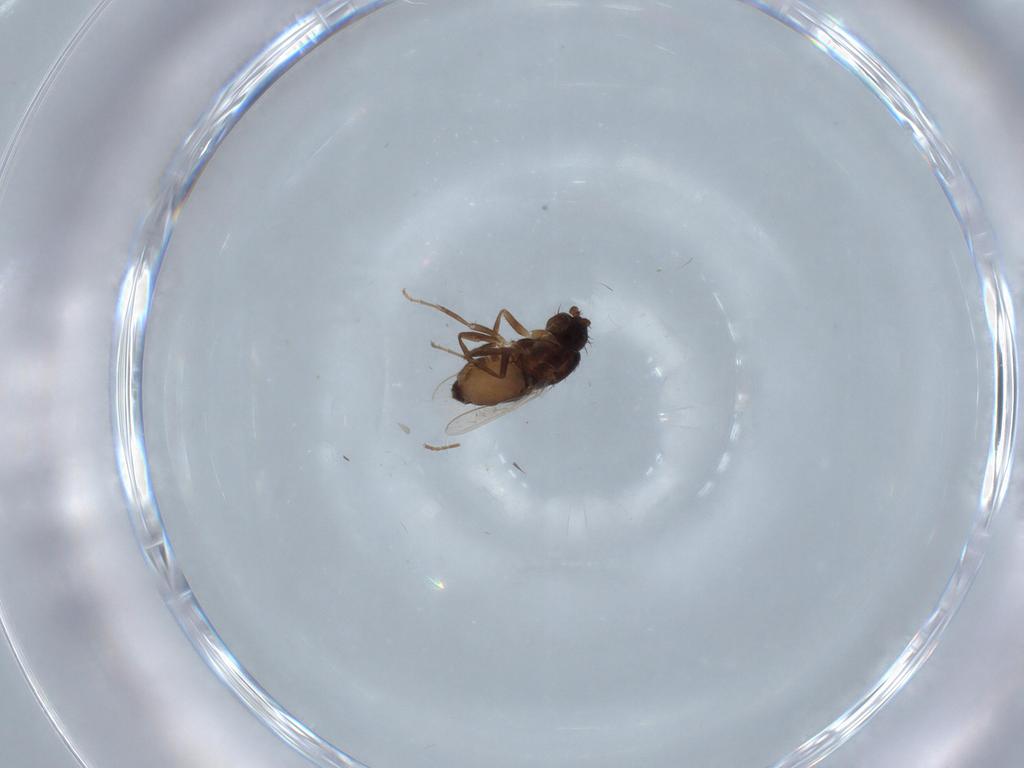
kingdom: Animalia
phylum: Arthropoda
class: Insecta
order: Diptera
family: Sphaeroceridae
